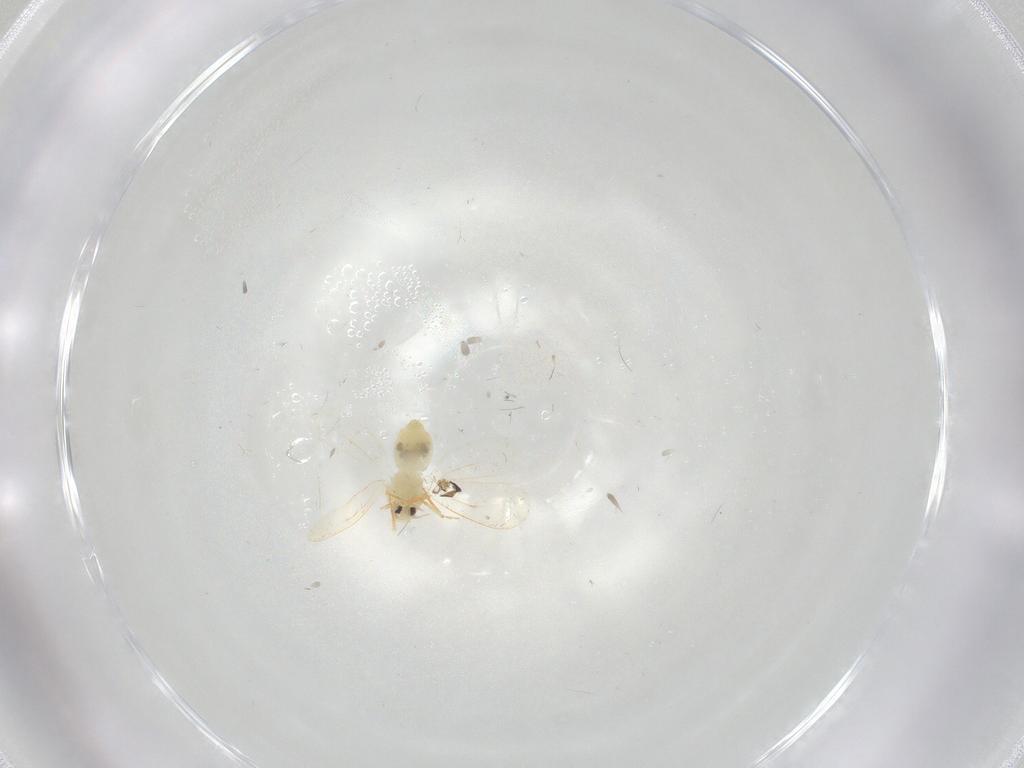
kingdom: Animalia
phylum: Arthropoda
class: Insecta
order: Hemiptera
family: Aleyrodidae
